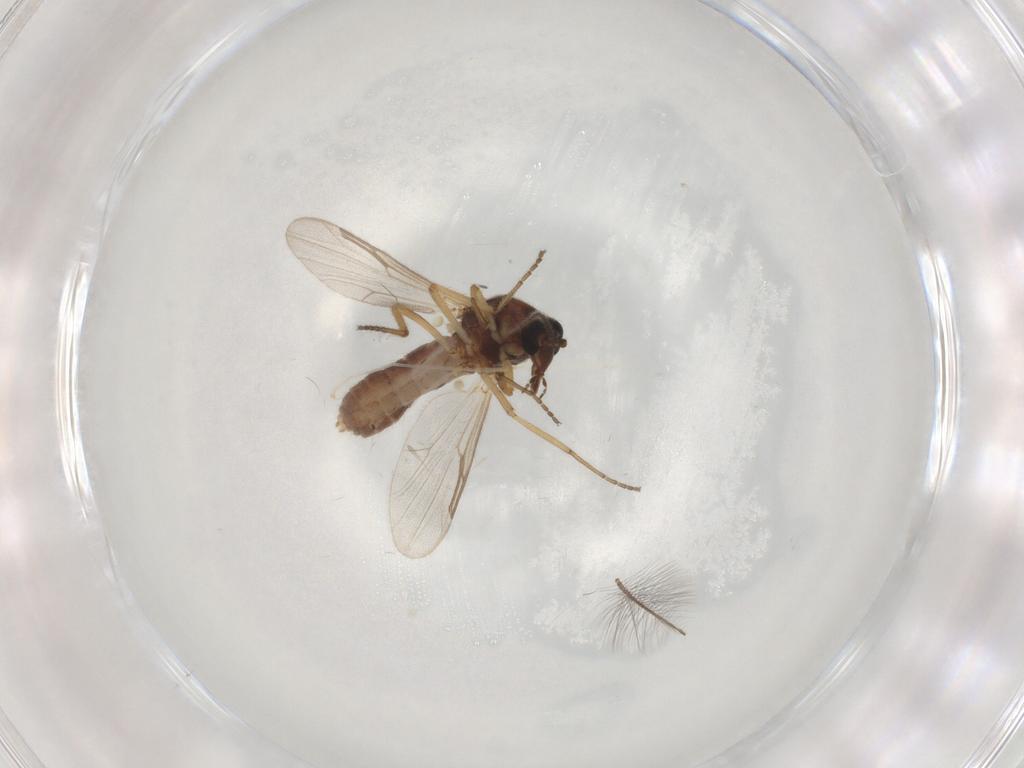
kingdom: Animalia
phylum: Arthropoda
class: Insecta
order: Diptera
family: Ceratopogonidae
